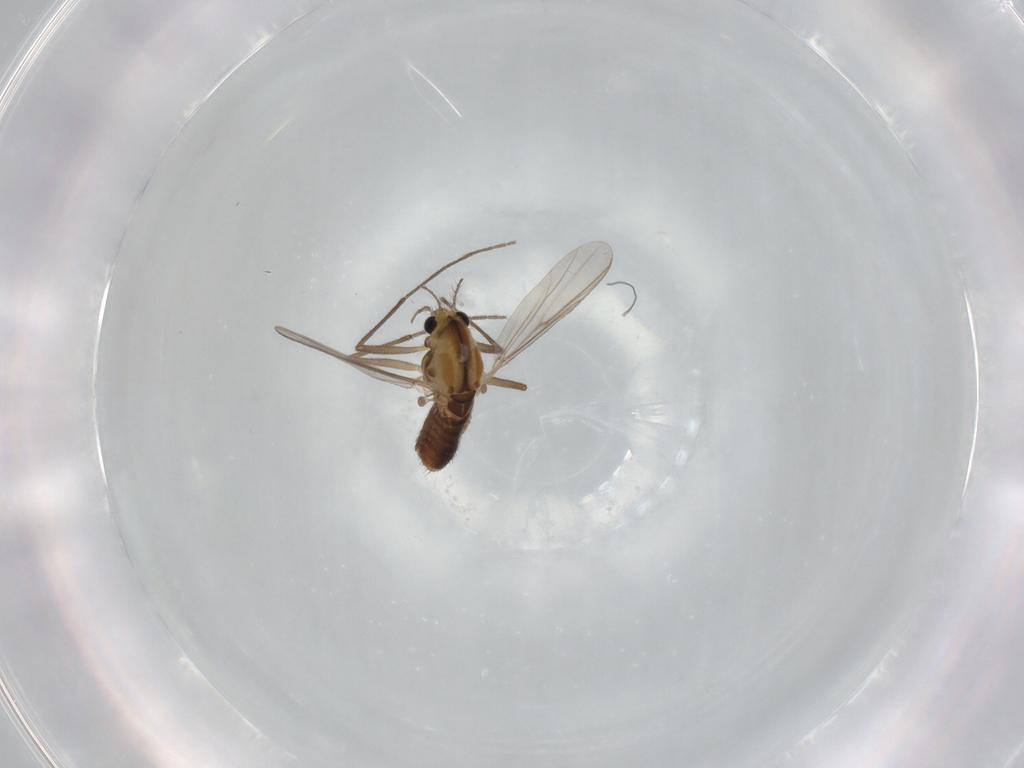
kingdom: Animalia
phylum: Arthropoda
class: Insecta
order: Diptera
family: Chironomidae
